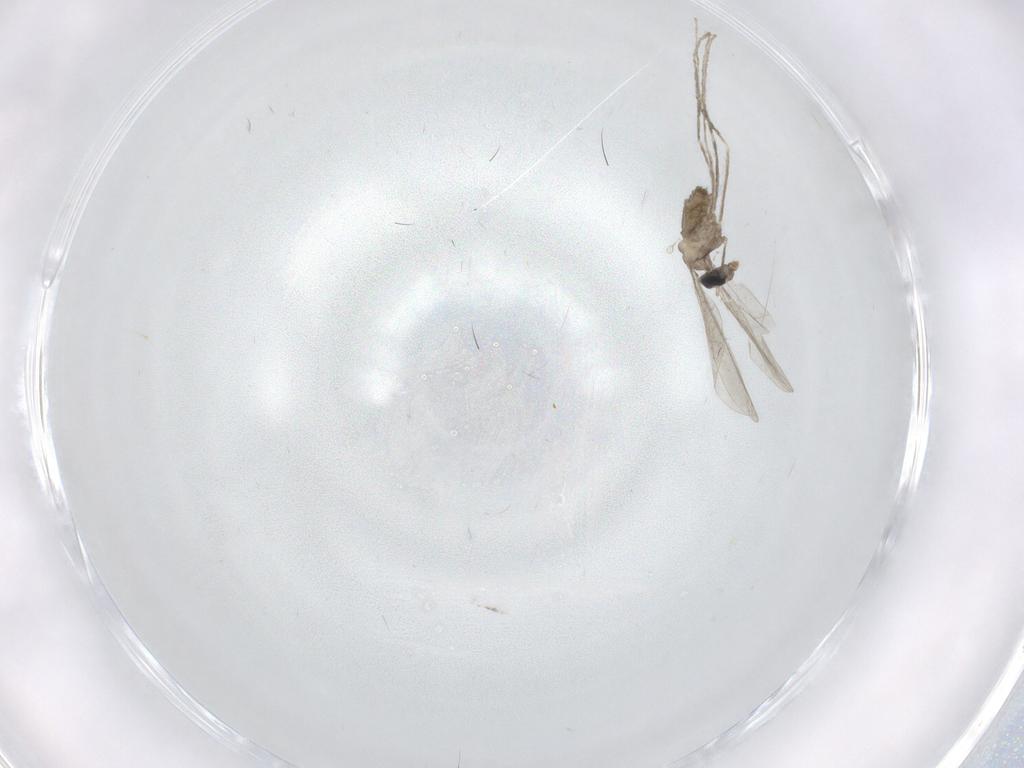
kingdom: Animalia
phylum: Arthropoda
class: Insecta
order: Diptera
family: Cecidomyiidae
